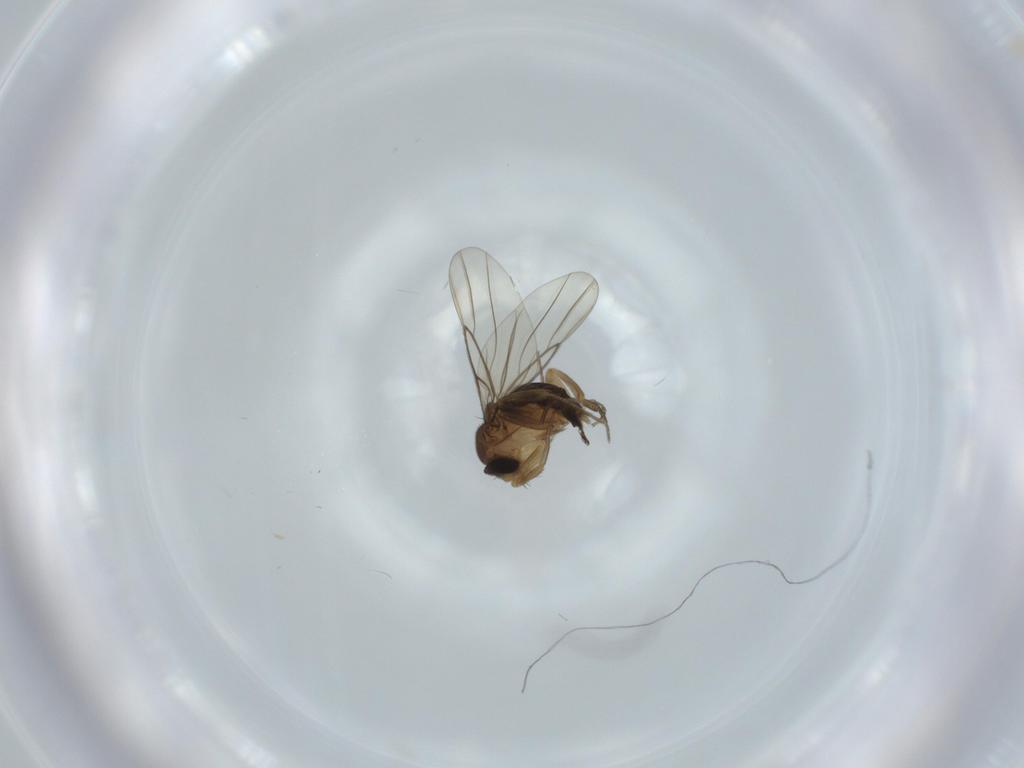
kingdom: Animalia
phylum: Arthropoda
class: Insecta
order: Diptera
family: Phoridae
